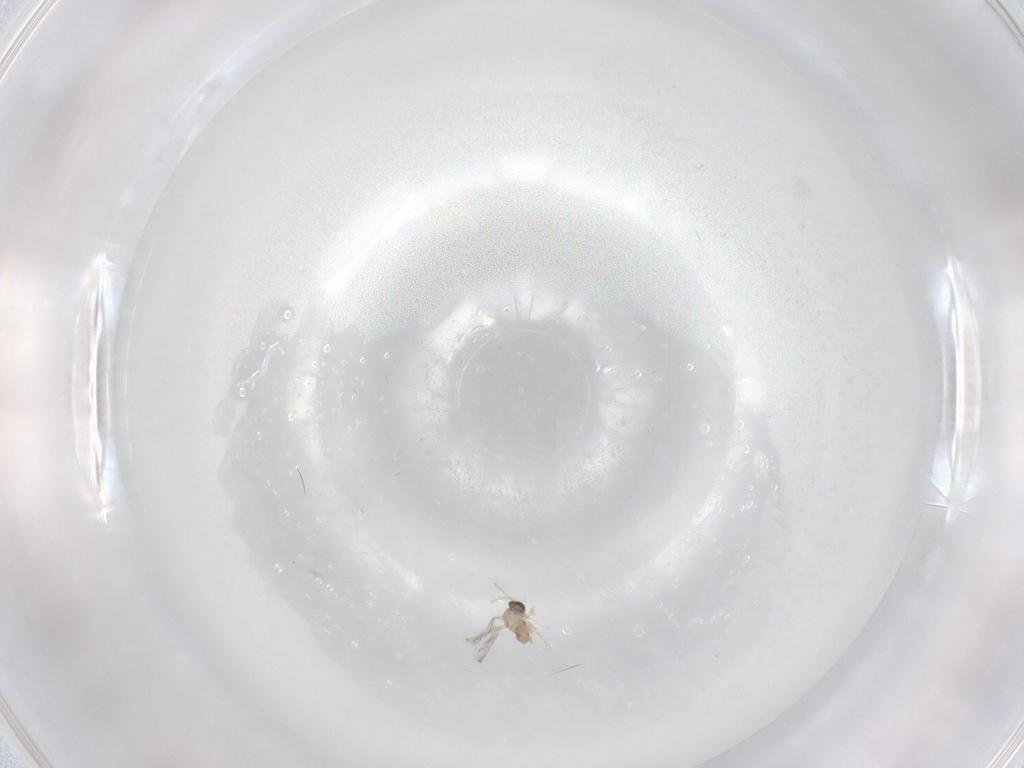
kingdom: Animalia
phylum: Arthropoda
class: Insecta
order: Diptera
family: Cecidomyiidae
